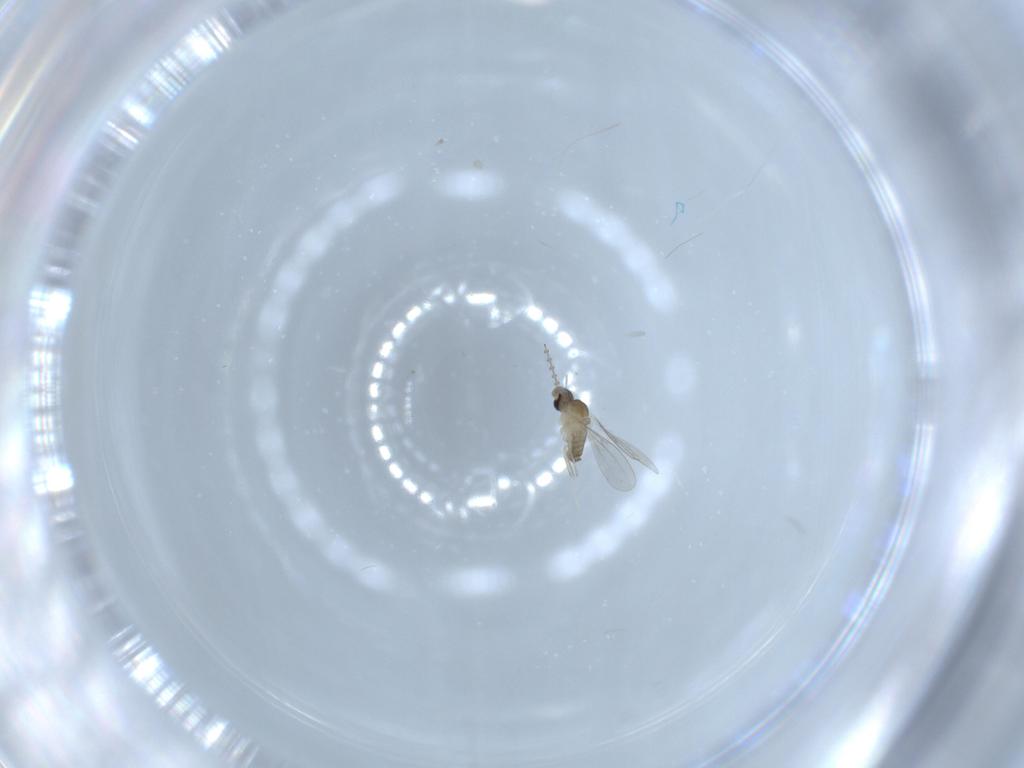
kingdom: Animalia
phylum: Arthropoda
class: Insecta
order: Diptera
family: Cecidomyiidae
